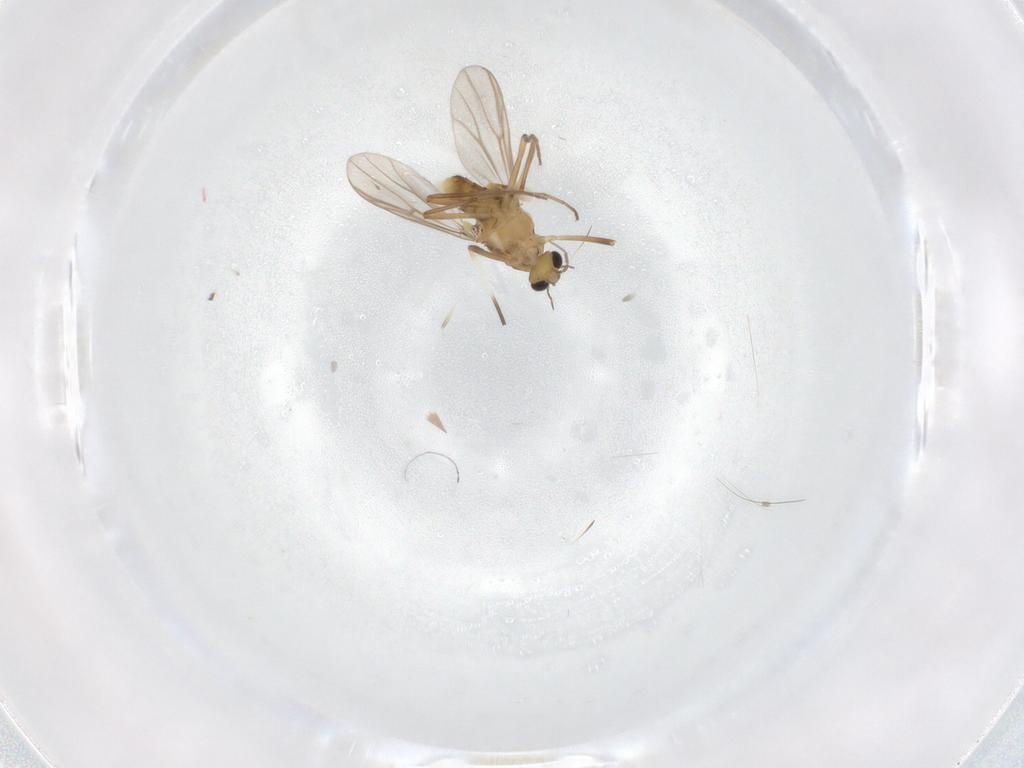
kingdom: Animalia
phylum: Arthropoda
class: Insecta
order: Diptera
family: Chironomidae
